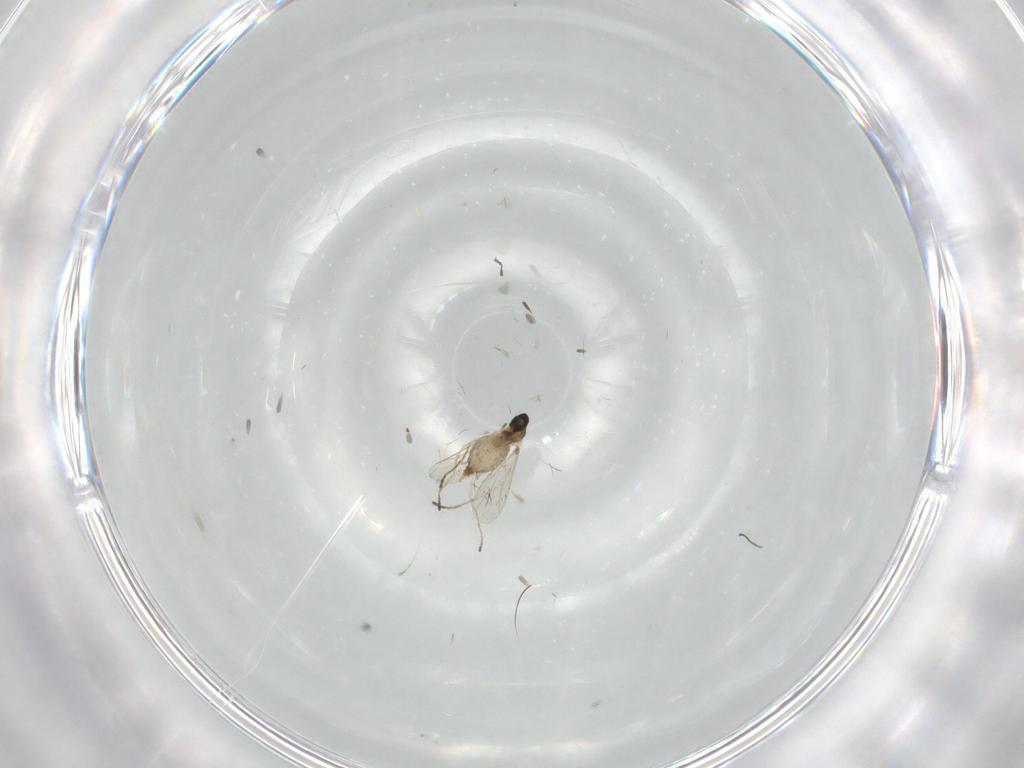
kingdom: Animalia
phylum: Arthropoda
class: Insecta
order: Diptera
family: Cecidomyiidae
